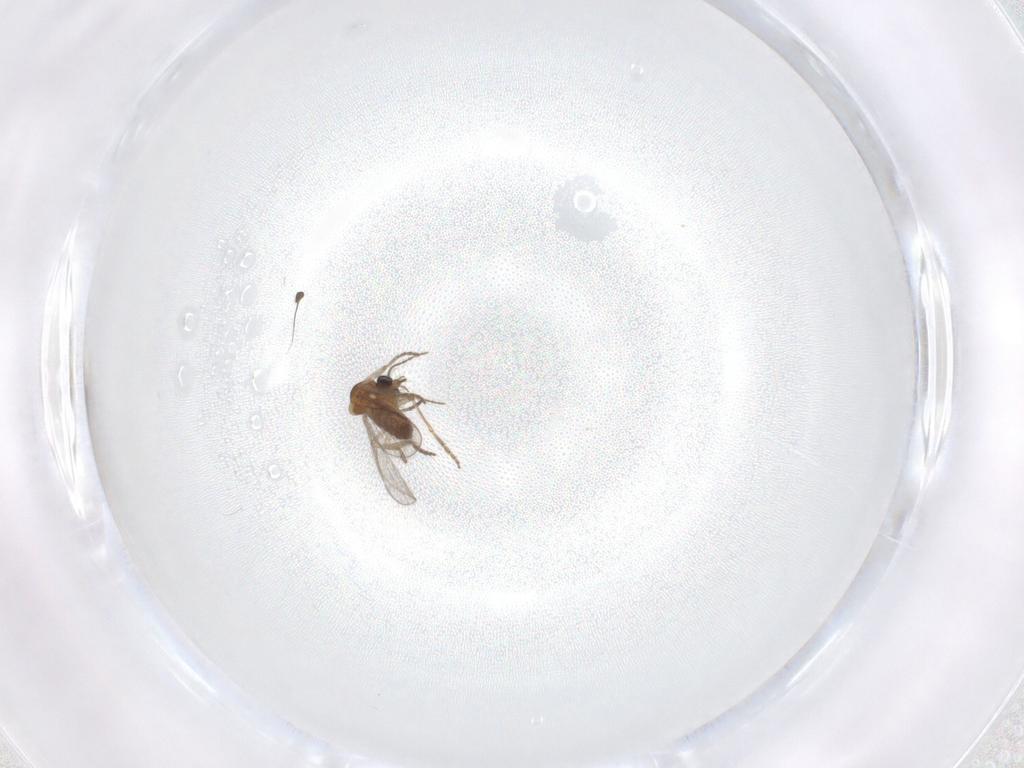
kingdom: Animalia
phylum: Arthropoda
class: Insecta
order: Diptera
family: Dolichopodidae
